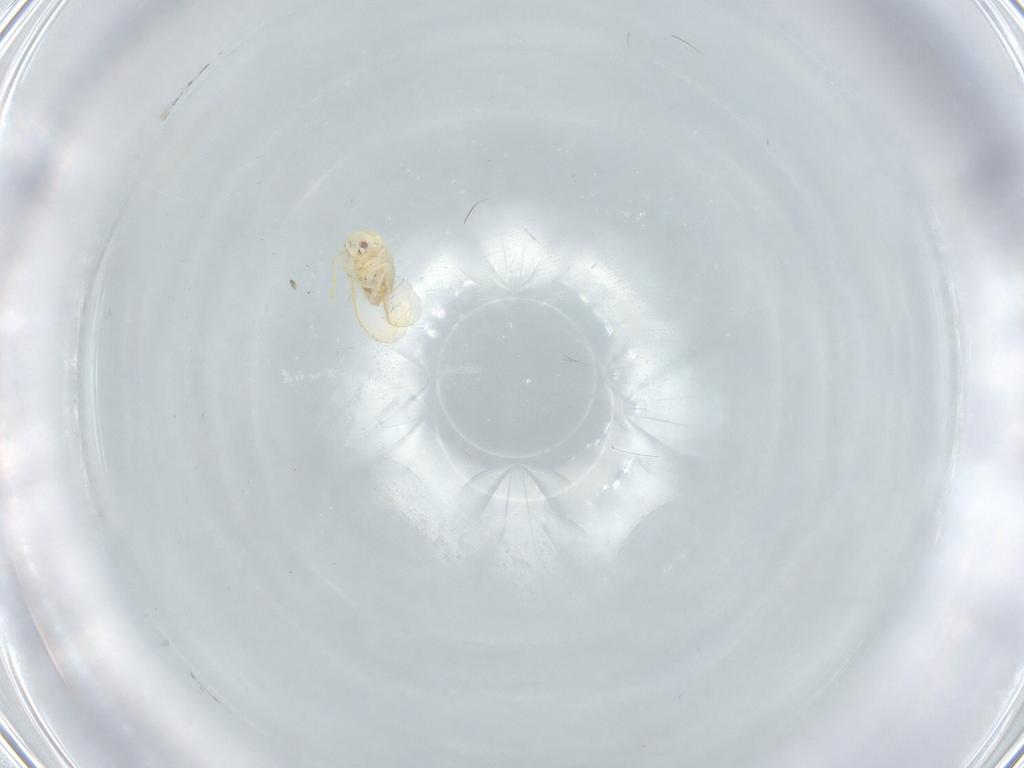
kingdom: Animalia
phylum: Arthropoda
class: Insecta
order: Hemiptera
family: Aleyrodidae
